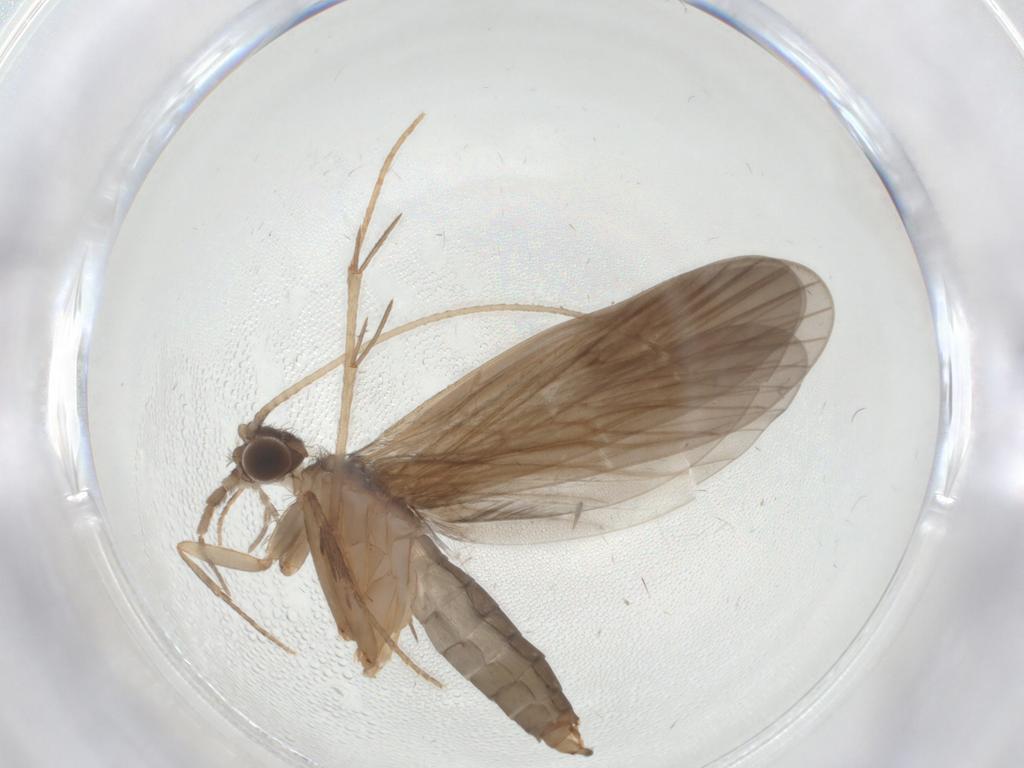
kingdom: Animalia
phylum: Arthropoda
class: Insecta
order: Trichoptera
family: Philopotamidae
